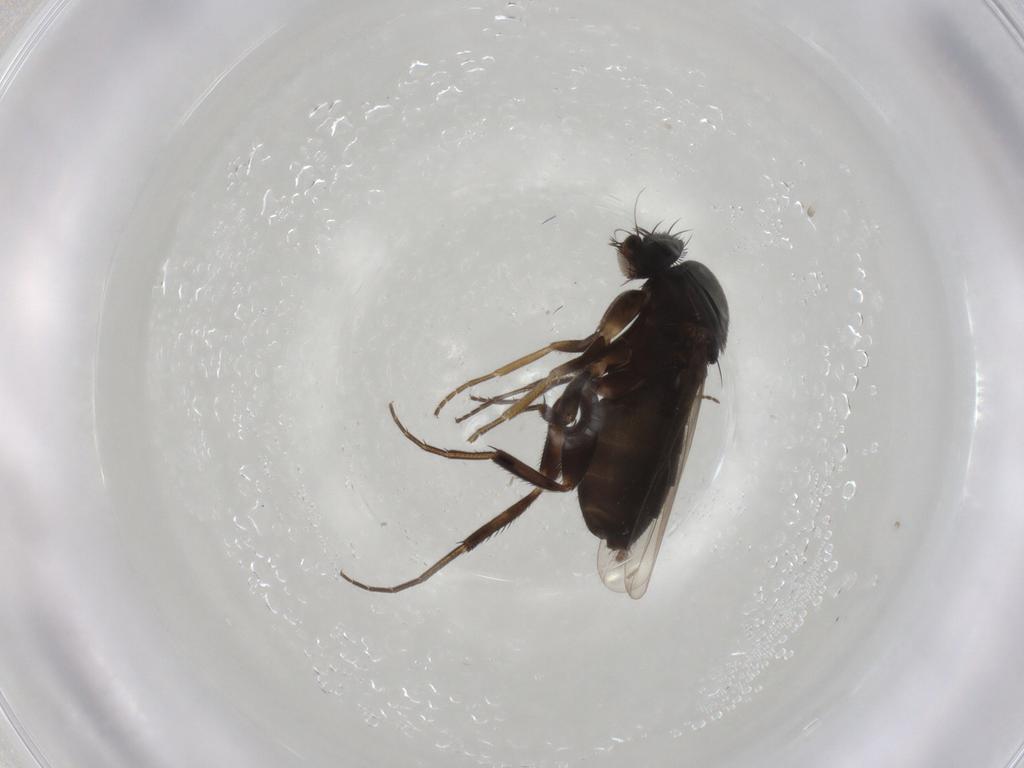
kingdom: Animalia
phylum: Arthropoda
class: Insecta
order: Diptera
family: Phoridae
